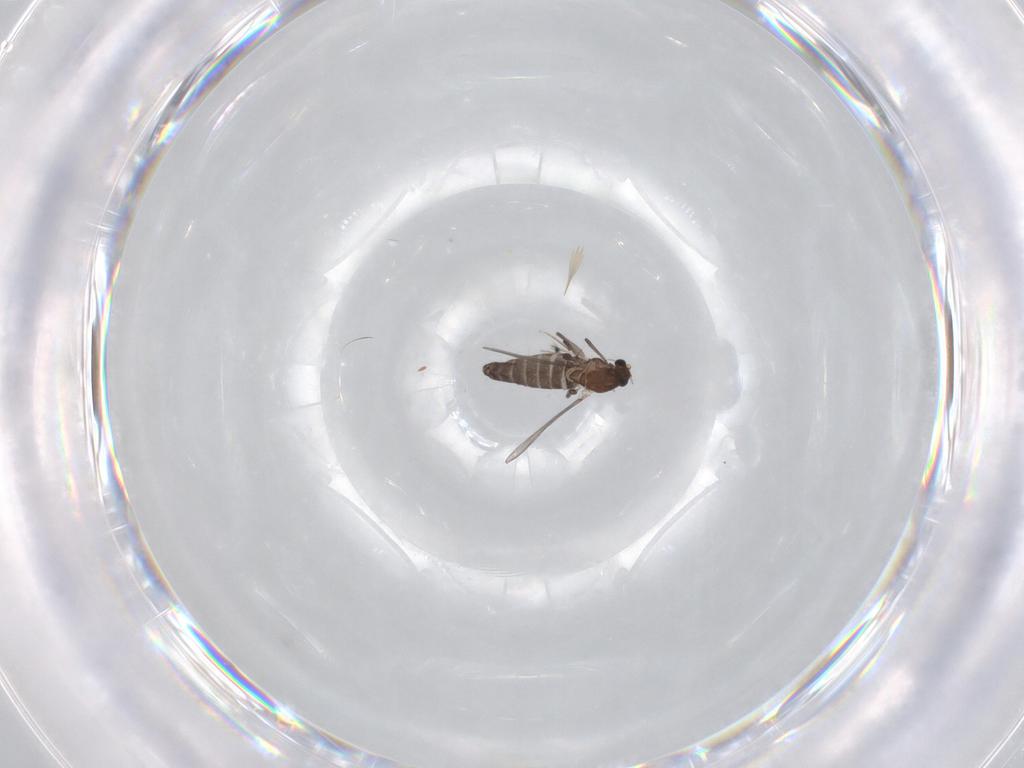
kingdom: Animalia
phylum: Arthropoda
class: Insecta
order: Diptera
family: Chironomidae
